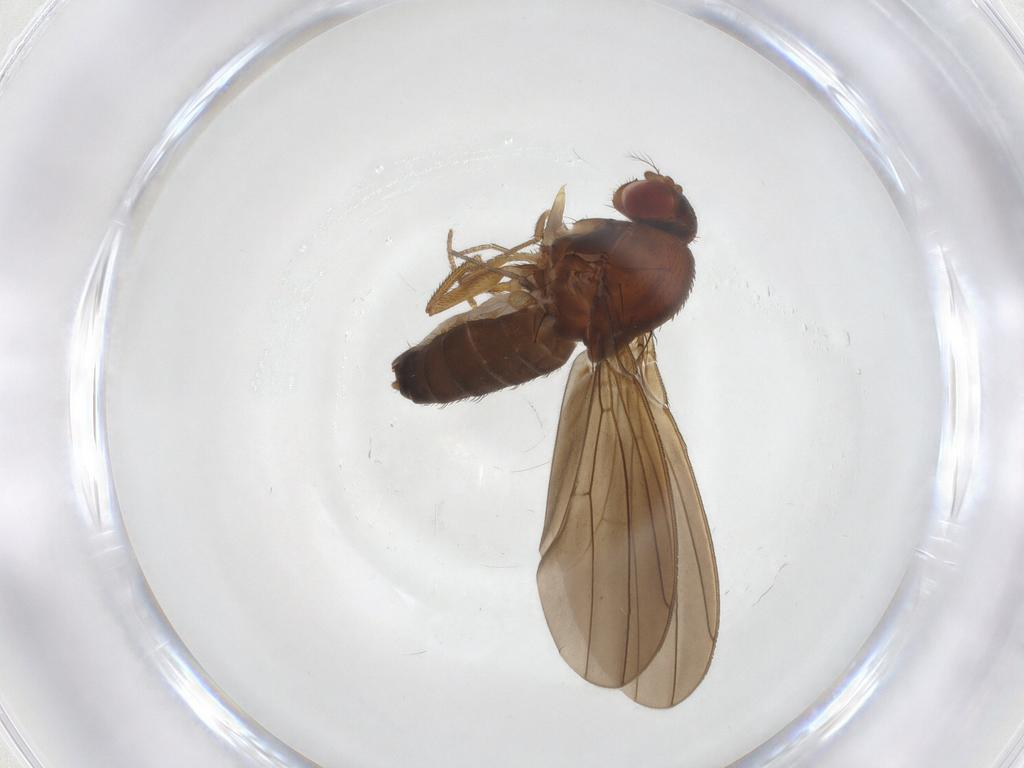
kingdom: Animalia
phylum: Arthropoda
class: Insecta
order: Diptera
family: Drosophilidae
